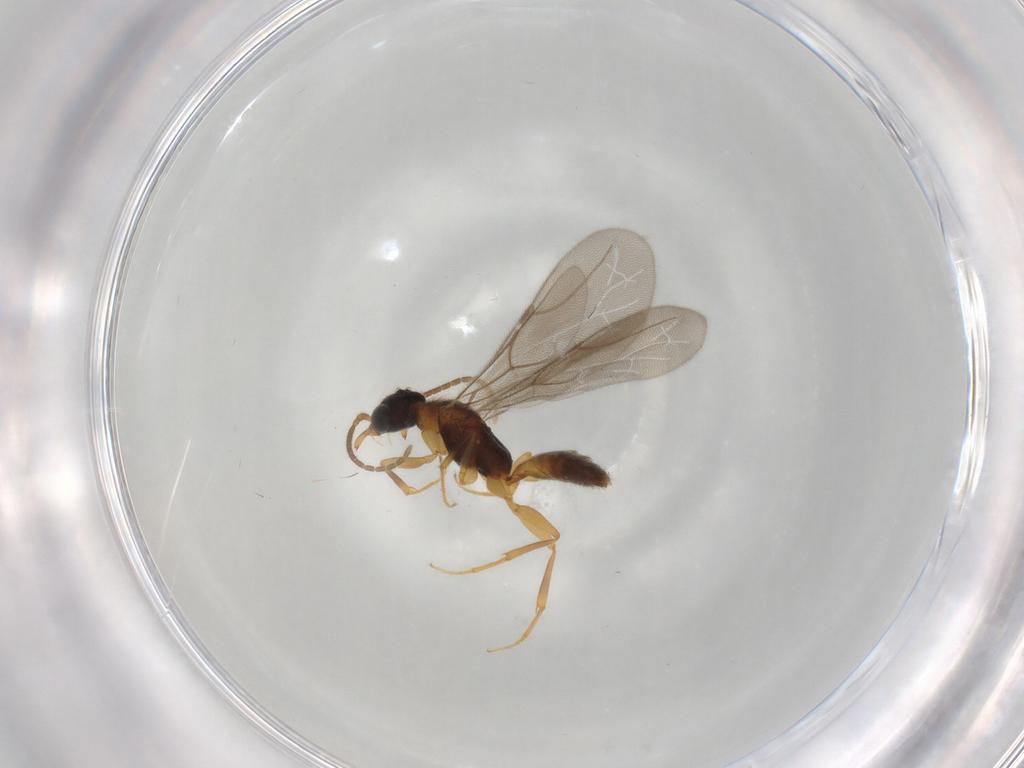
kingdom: Animalia
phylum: Arthropoda
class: Insecta
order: Hymenoptera
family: Bethylidae
